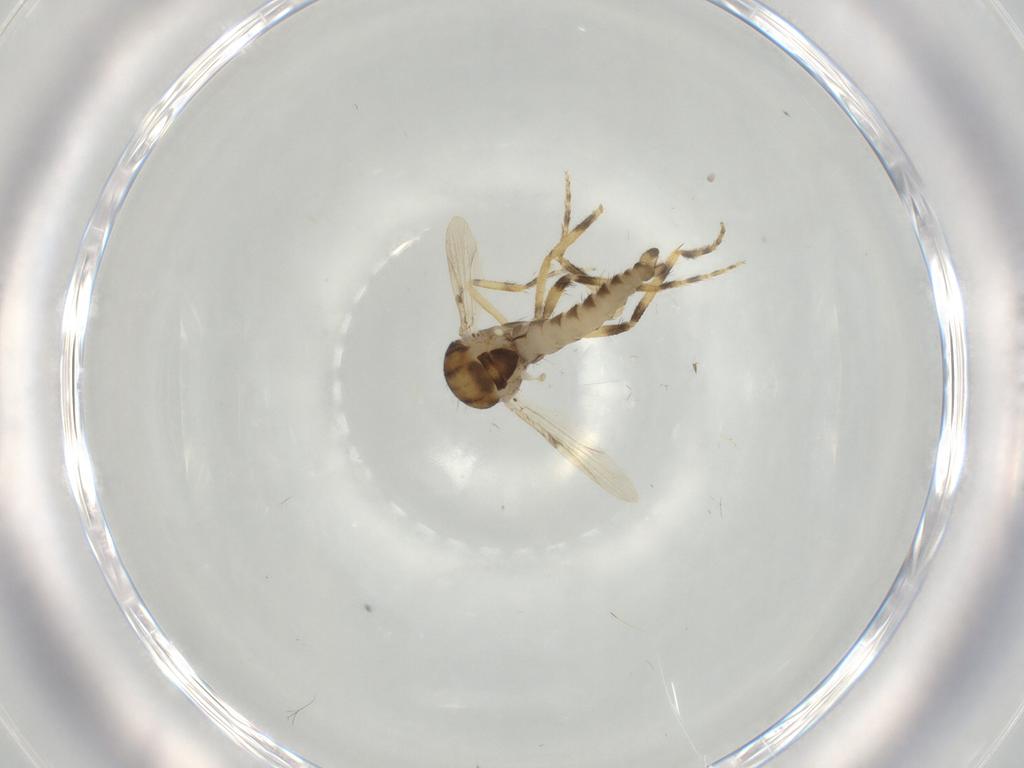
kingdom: Animalia
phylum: Arthropoda
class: Insecta
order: Diptera
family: Ceratopogonidae
